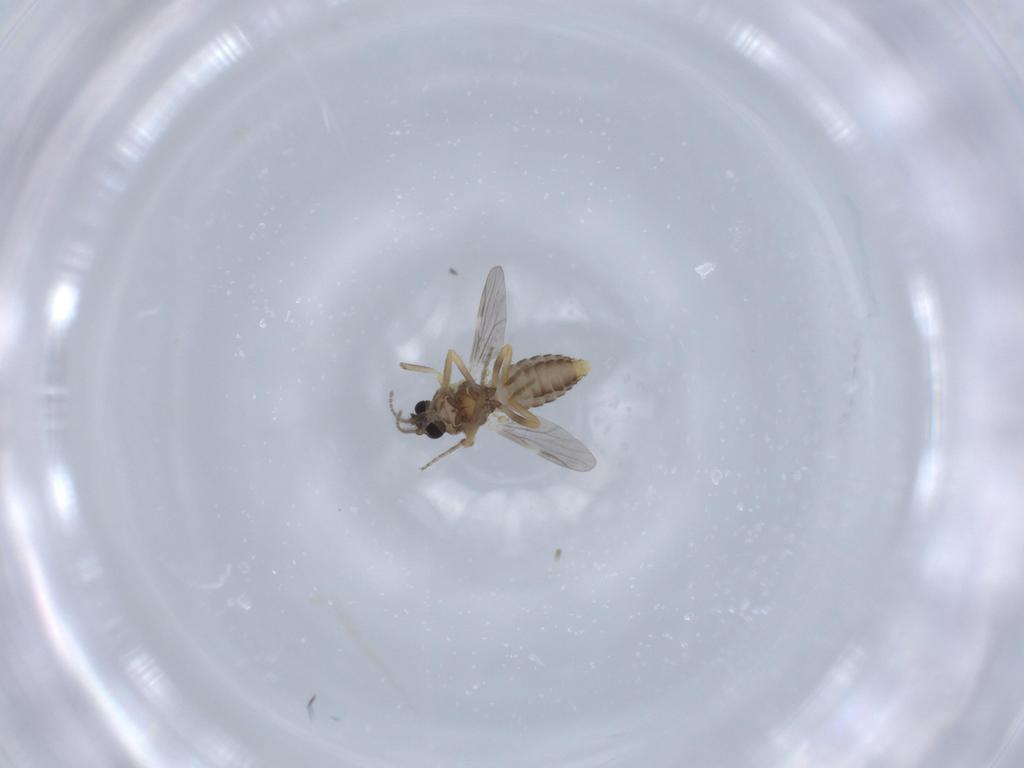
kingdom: Animalia
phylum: Arthropoda
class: Insecta
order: Diptera
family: Ceratopogonidae
